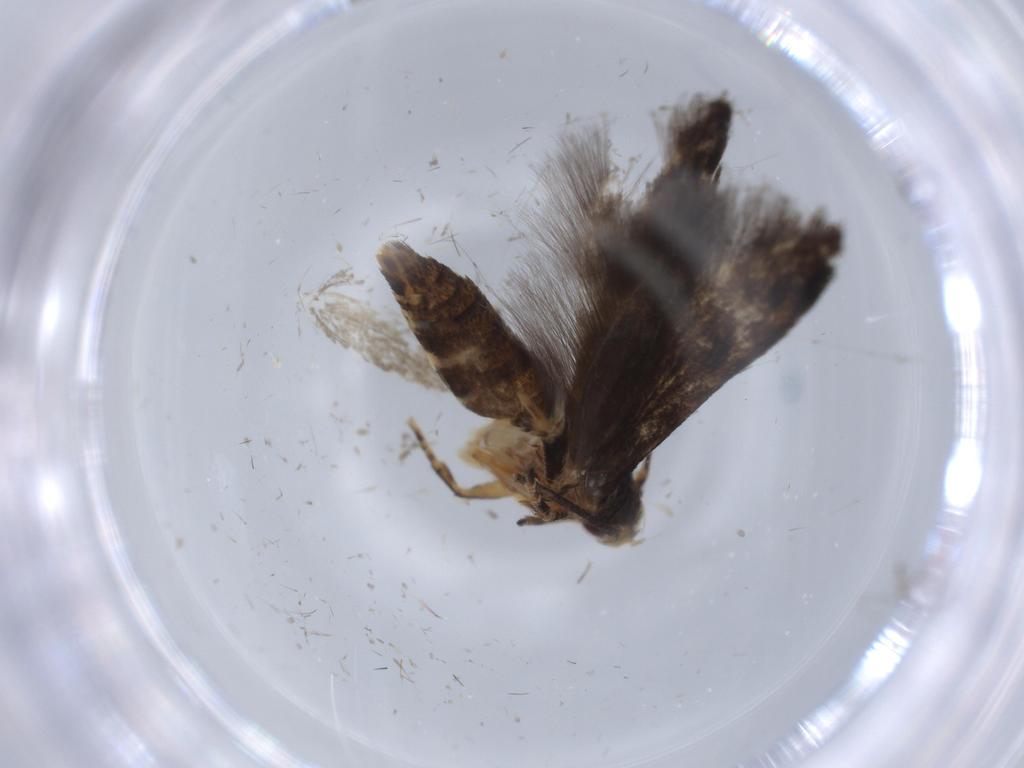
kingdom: Animalia
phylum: Arthropoda
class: Insecta
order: Lepidoptera
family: Momphidae
